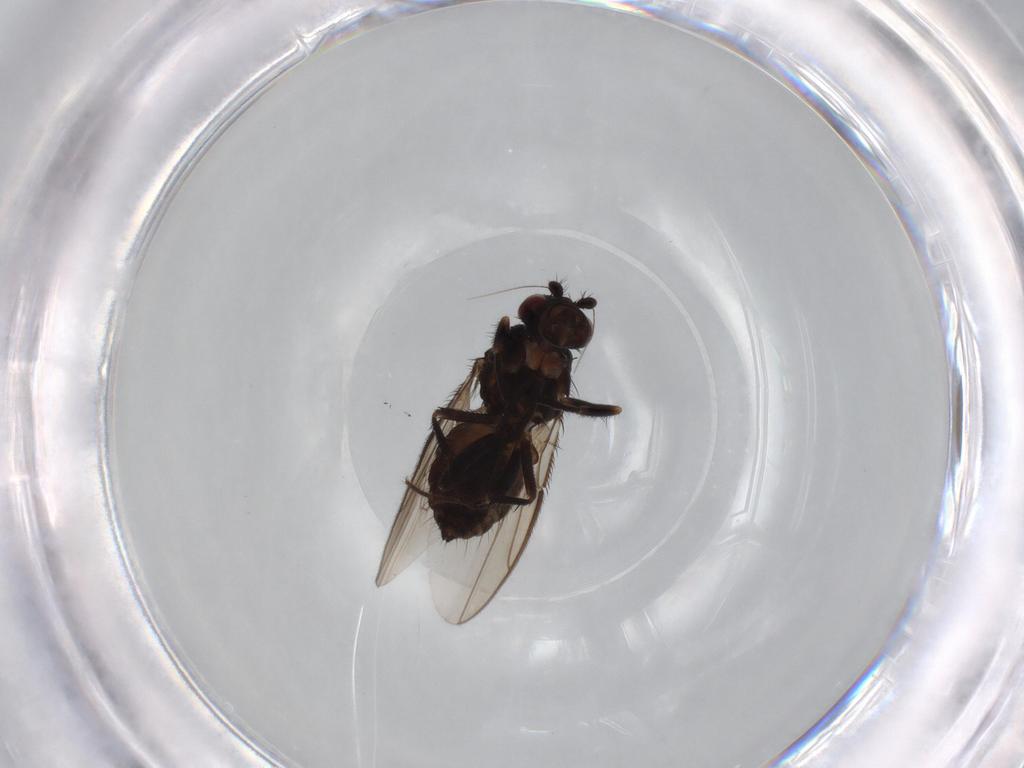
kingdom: Animalia
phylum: Arthropoda
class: Insecta
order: Diptera
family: Sphaeroceridae
